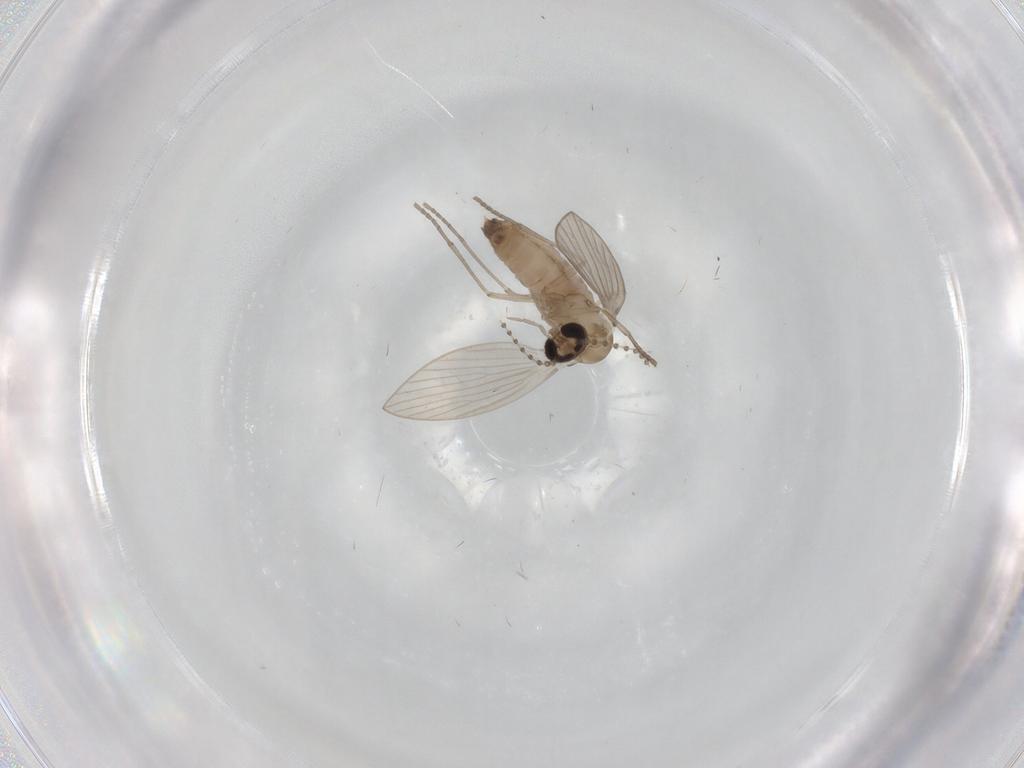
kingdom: Animalia
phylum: Arthropoda
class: Insecta
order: Diptera
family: Psychodidae
